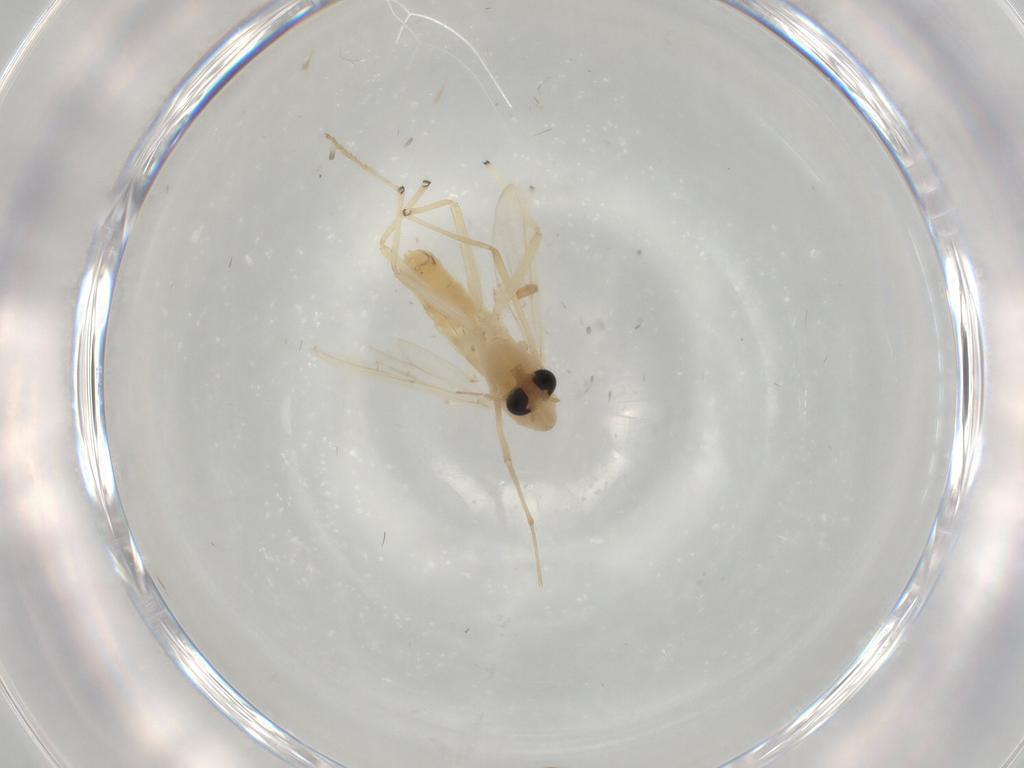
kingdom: Animalia
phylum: Arthropoda
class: Insecta
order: Diptera
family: Chironomidae
